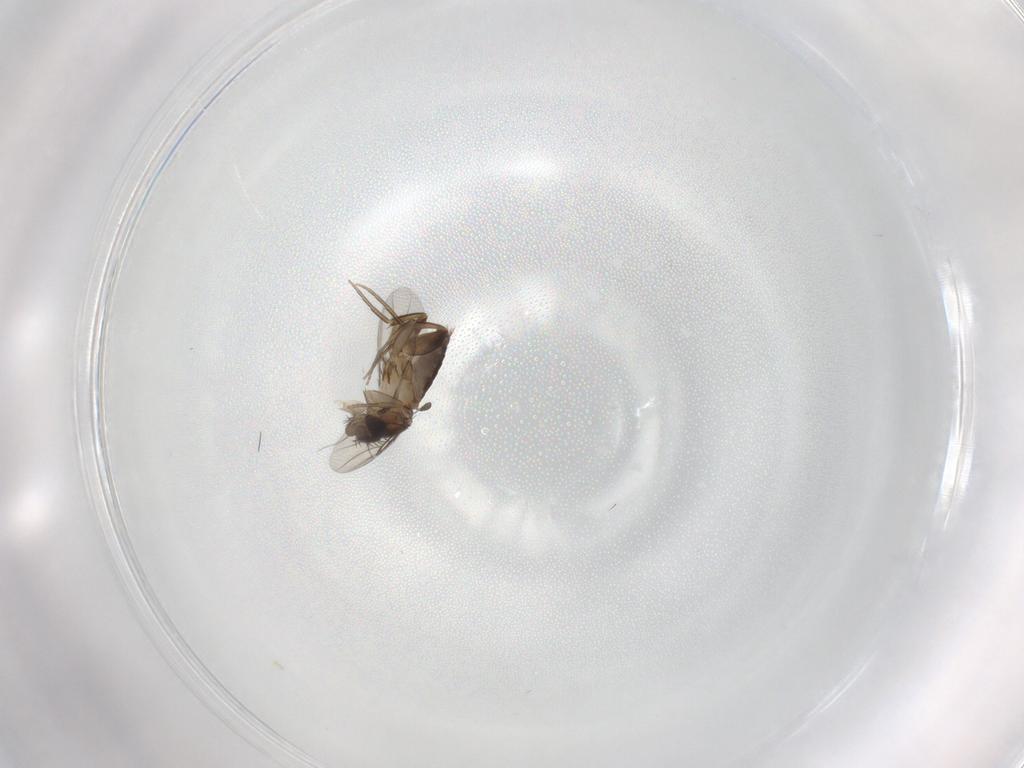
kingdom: Animalia
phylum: Arthropoda
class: Insecta
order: Diptera
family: Phoridae
